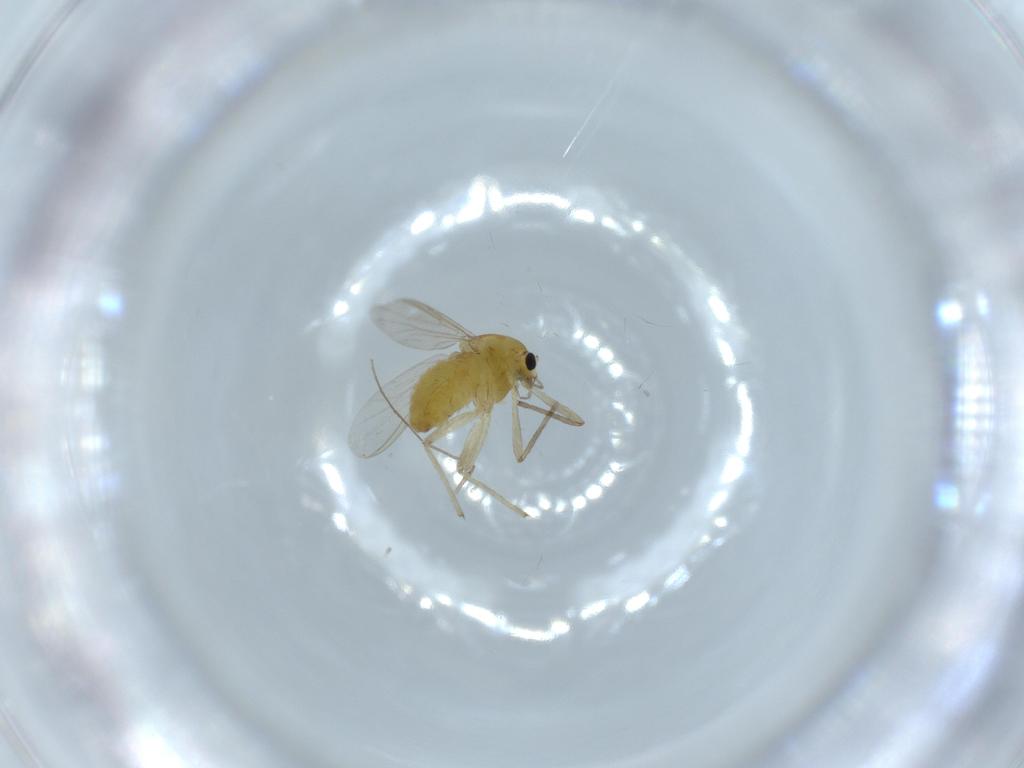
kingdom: Animalia
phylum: Arthropoda
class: Insecta
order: Diptera
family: Chironomidae
